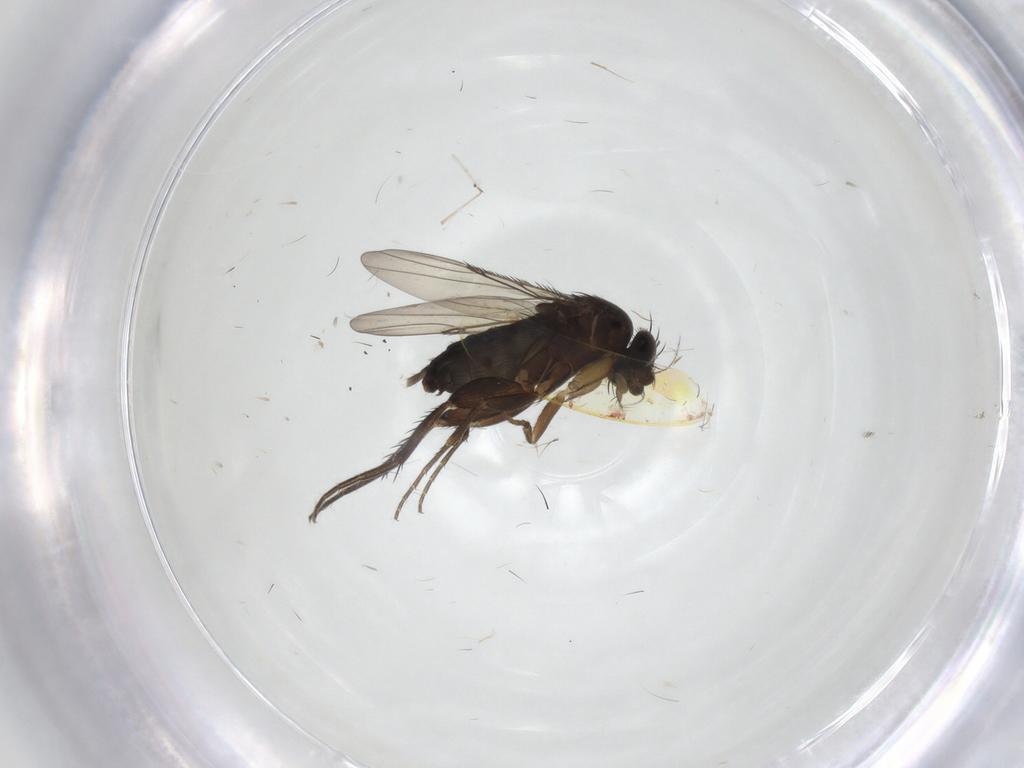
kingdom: Animalia
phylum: Arthropoda
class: Insecta
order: Diptera
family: Phoridae
